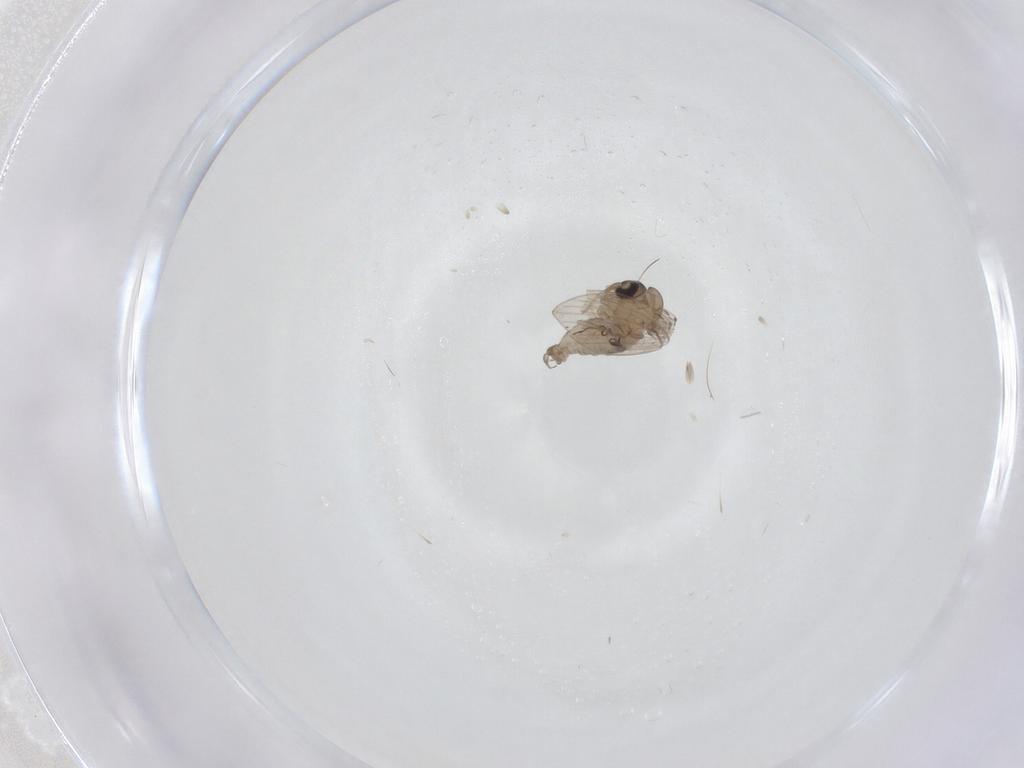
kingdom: Animalia
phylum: Arthropoda
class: Insecta
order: Diptera
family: Psychodidae
